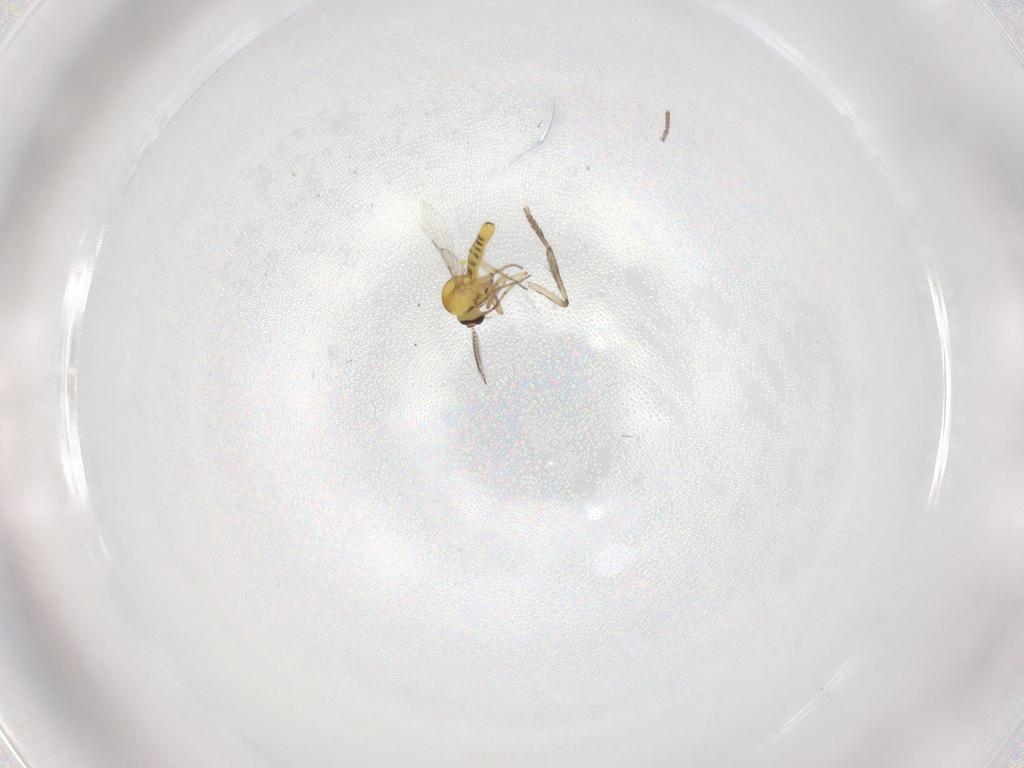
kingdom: Animalia
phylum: Arthropoda
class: Insecta
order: Diptera
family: Ceratopogonidae
